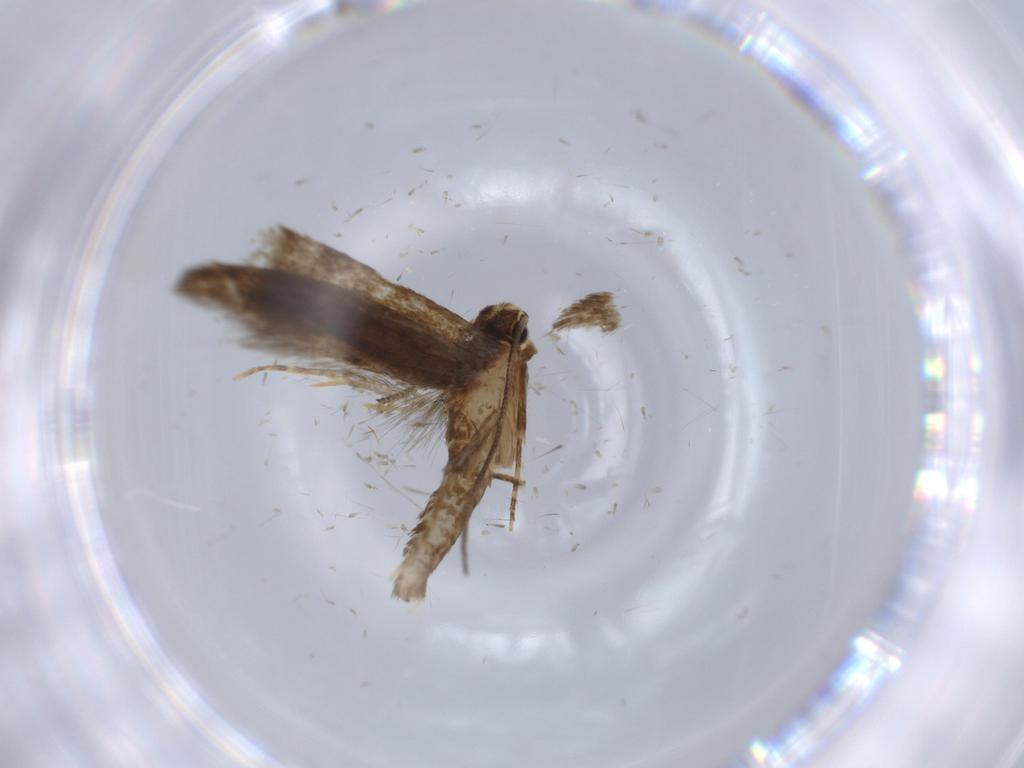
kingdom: Animalia
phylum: Arthropoda
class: Insecta
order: Lepidoptera
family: Tineidae
